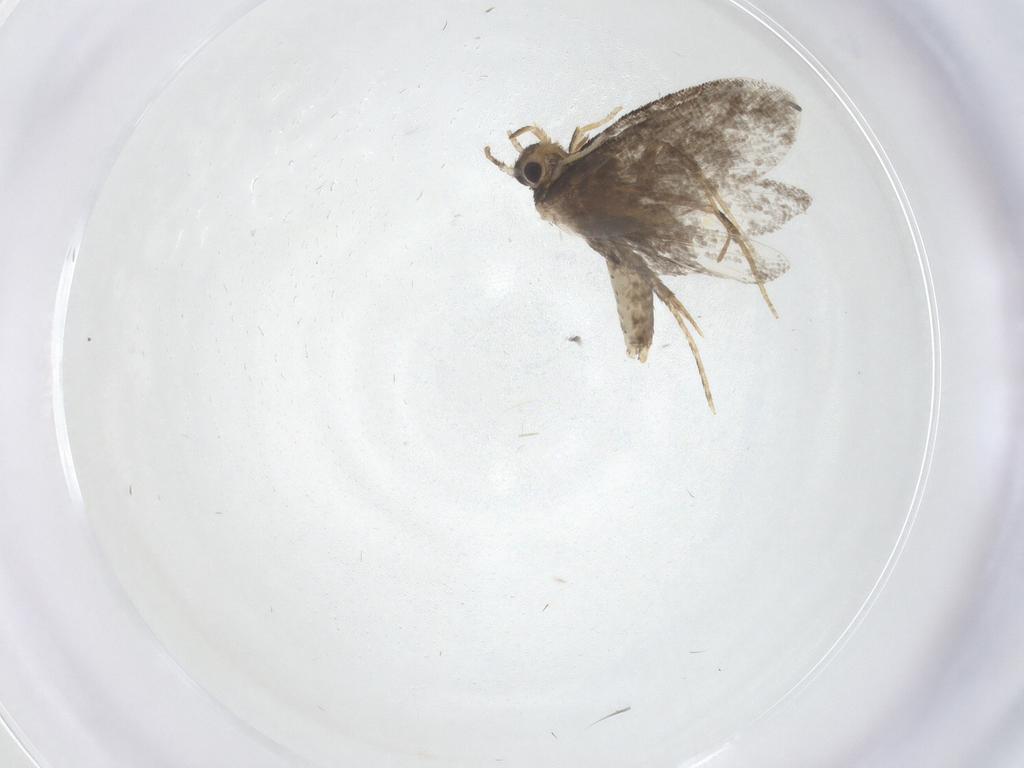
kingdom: Animalia
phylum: Arthropoda
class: Insecta
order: Lepidoptera
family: Psychidae
